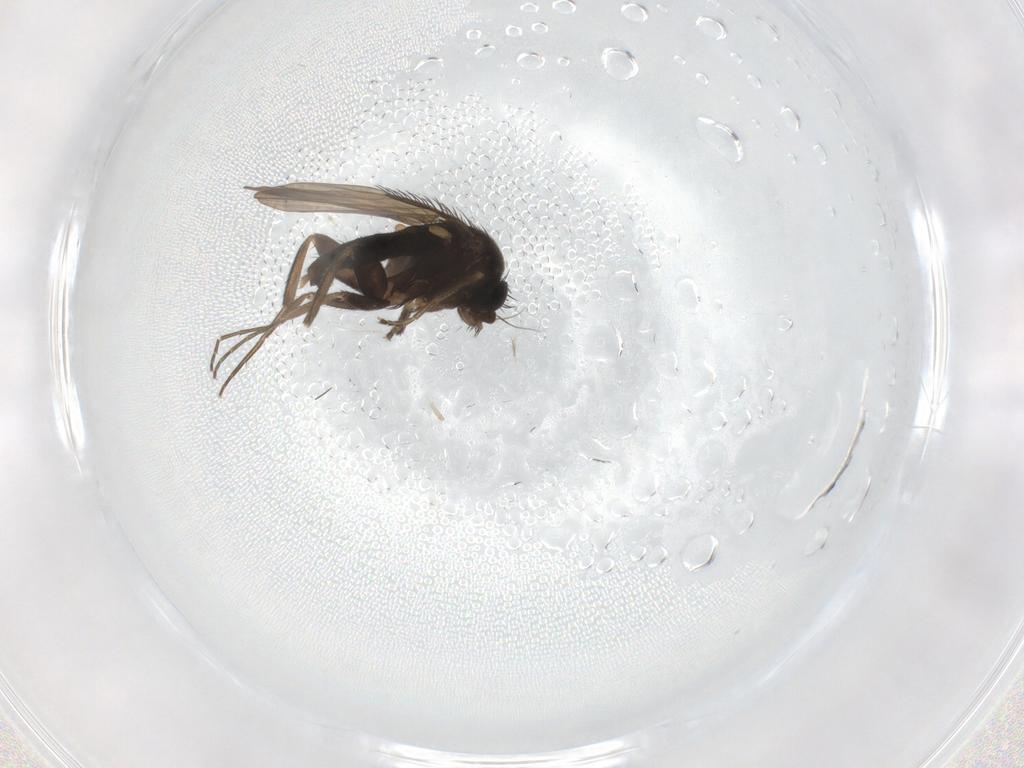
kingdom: Animalia
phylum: Arthropoda
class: Insecta
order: Diptera
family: Phoridae
